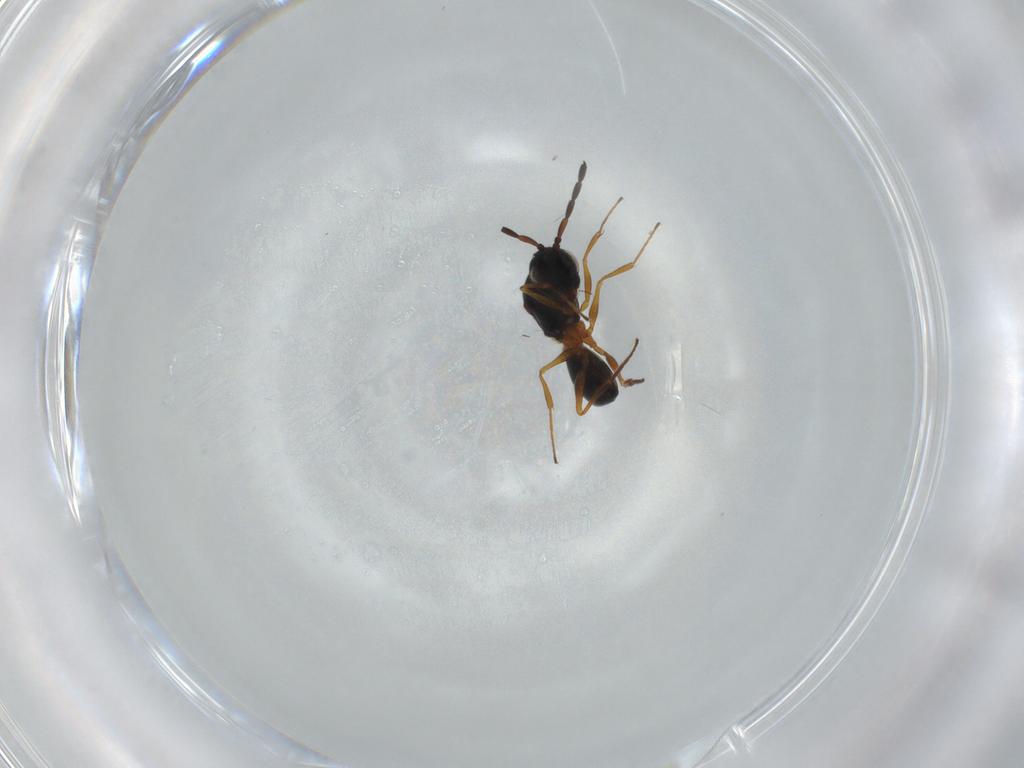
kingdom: Animalia
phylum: Arthropoda
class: Insecta
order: Hymenoptera
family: Figitidae
